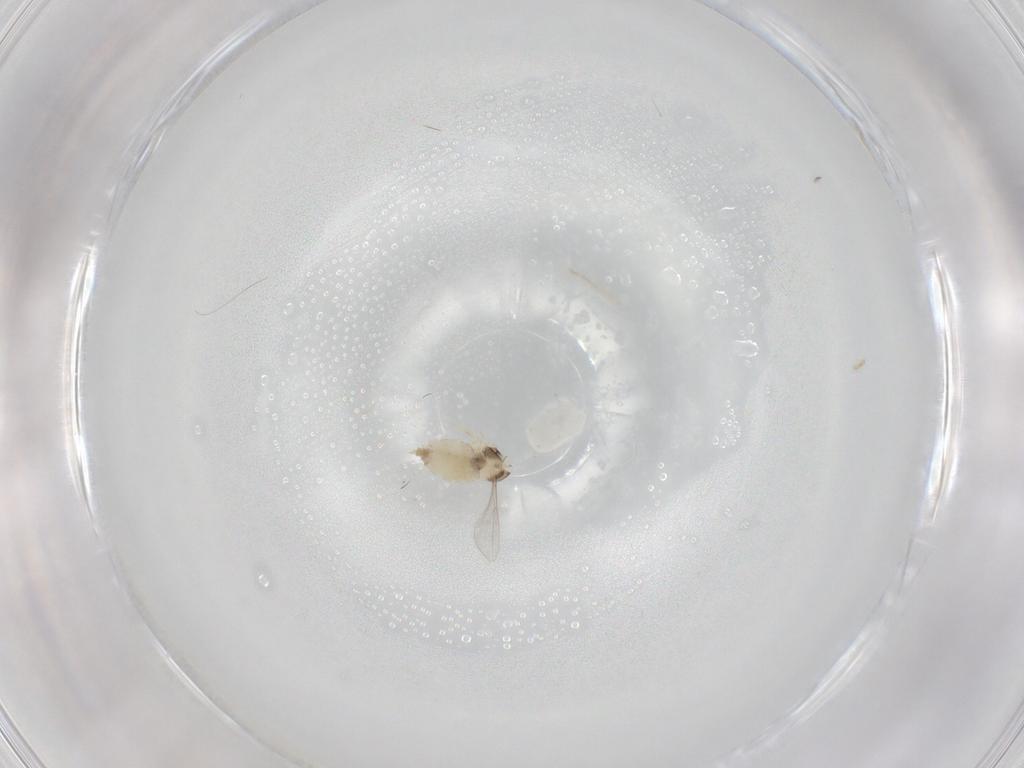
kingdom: Animalia
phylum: Arthropoda
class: Insecta
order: Diptera
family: Cecidomyiidae
